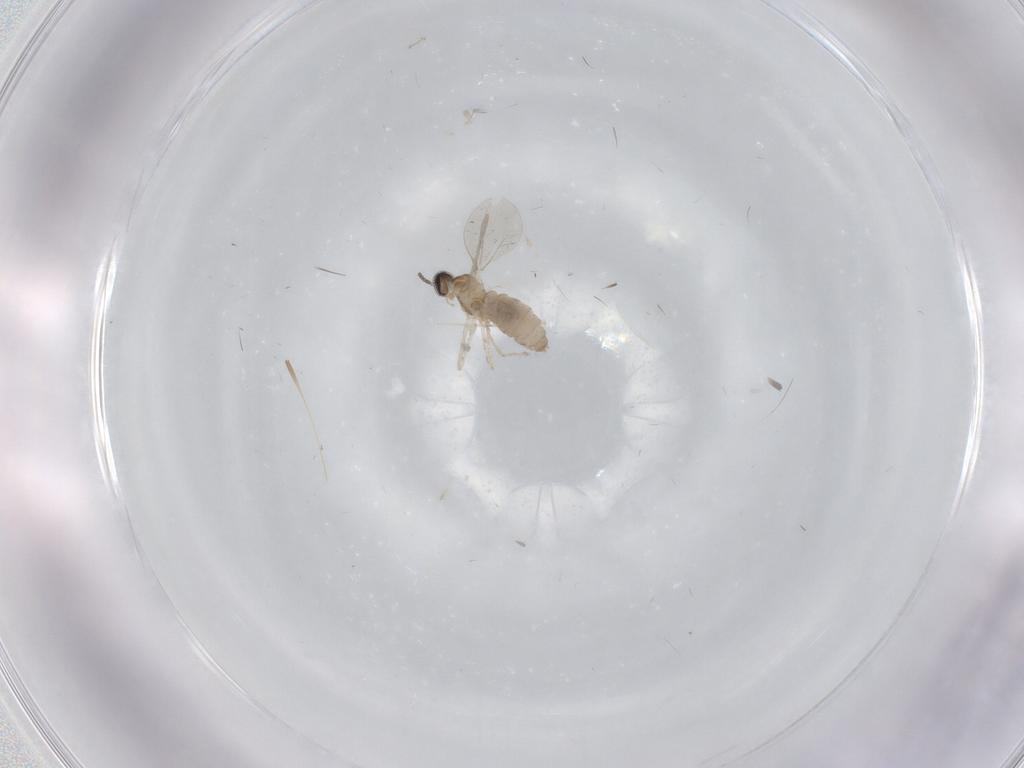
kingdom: Animalia
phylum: Arthropoda
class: Insecta
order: Diptera
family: Cecidomyiidae
